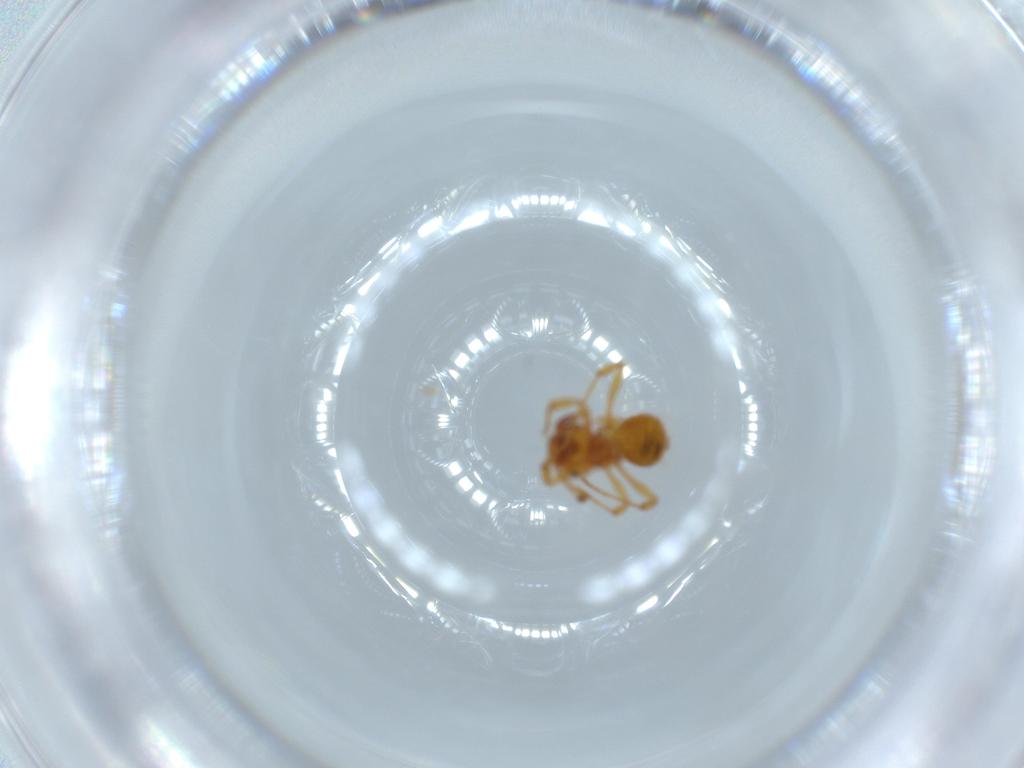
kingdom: Animalia
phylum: Arthropoda
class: Insecta
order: Hymenoptera
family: Formicidae
